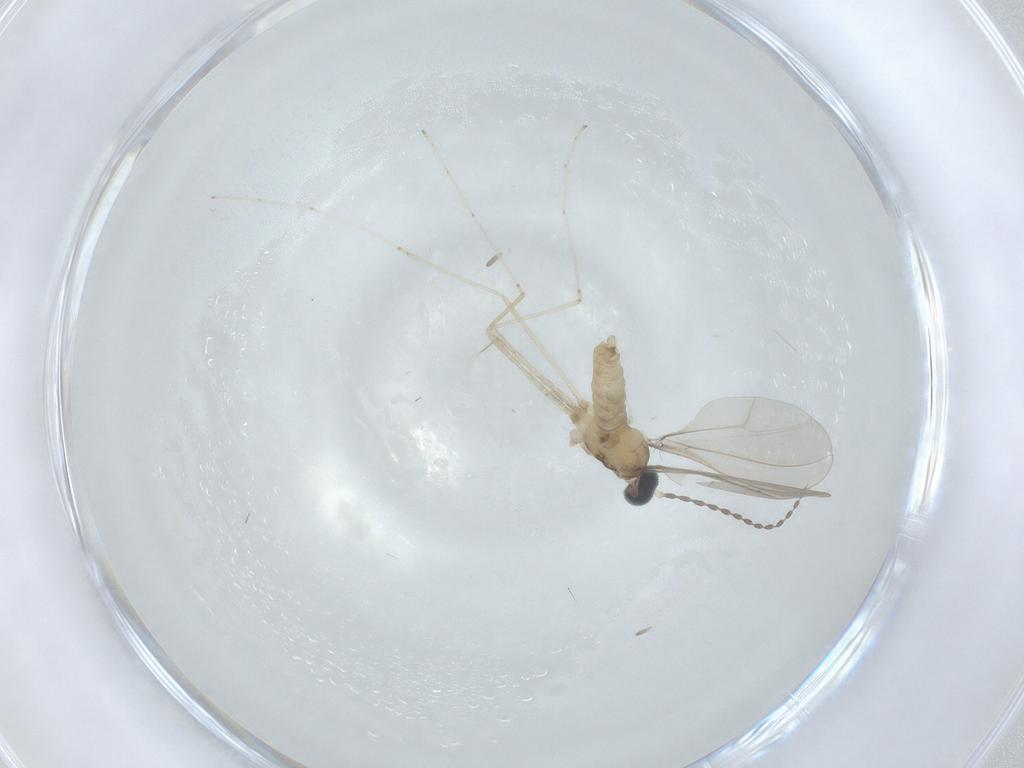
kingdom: Animalia
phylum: Arthropoda
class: Insecta
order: Diptera
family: Cecidomyiidae
